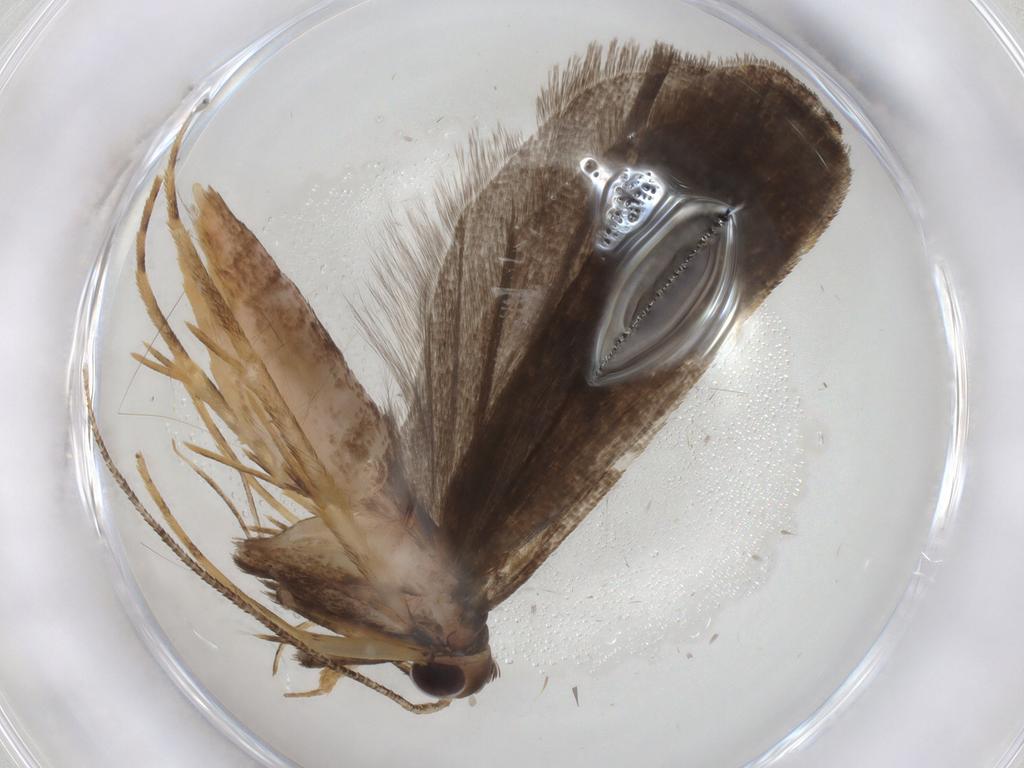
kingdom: Animalia
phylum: Arthropoda
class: Insecta
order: Lepidoptera
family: Cosmopterigidae
